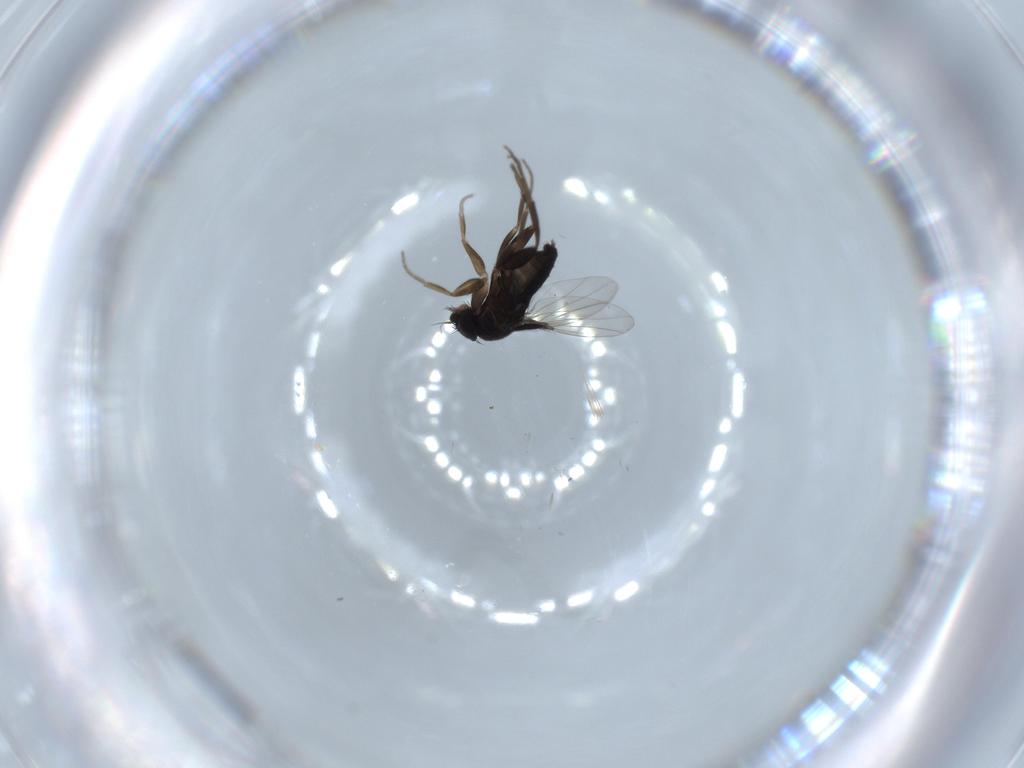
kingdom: Animalia
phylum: Arthropoda
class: Insecta
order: Diptera
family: Phoridae
